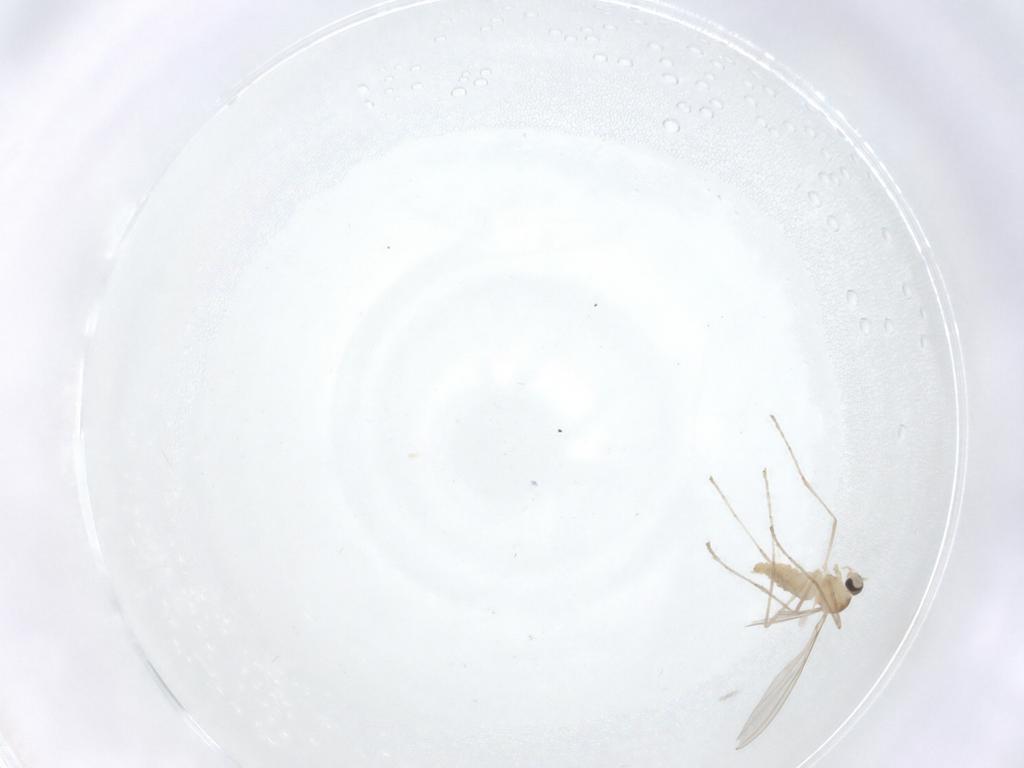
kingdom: Animalia
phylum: Arthropoda
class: Insecta
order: Diptera
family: Cecidomyiidae
